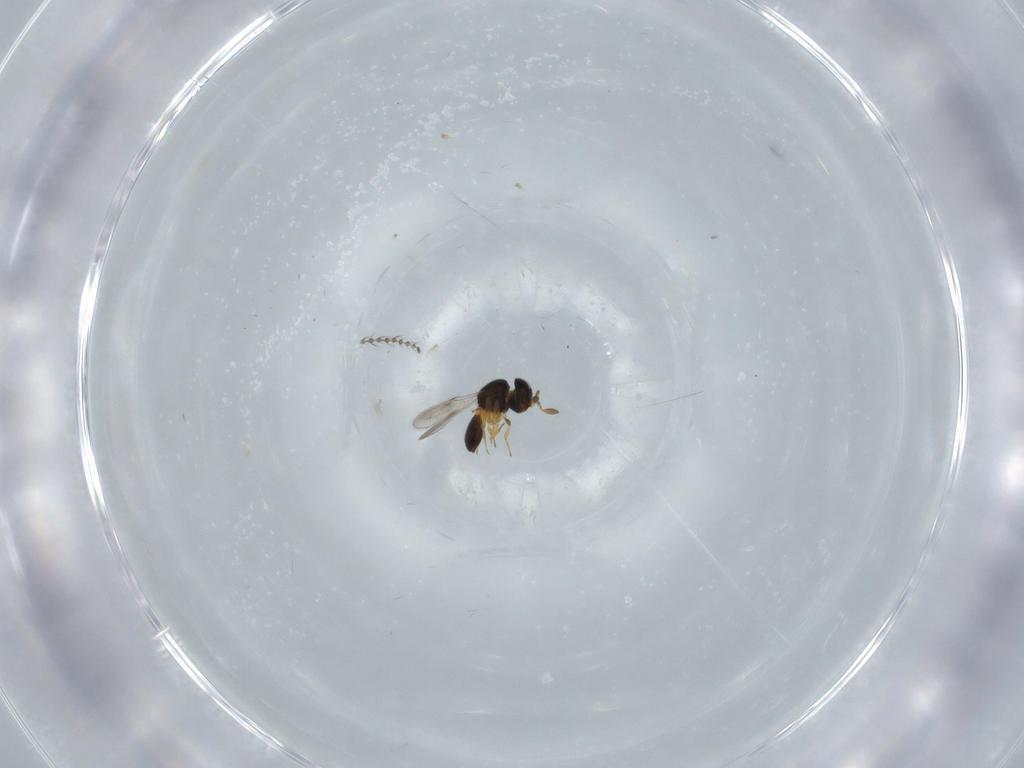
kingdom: Animalia
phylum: Arthropoda
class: Insecta
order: Hymenoptera
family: Scelionidae
